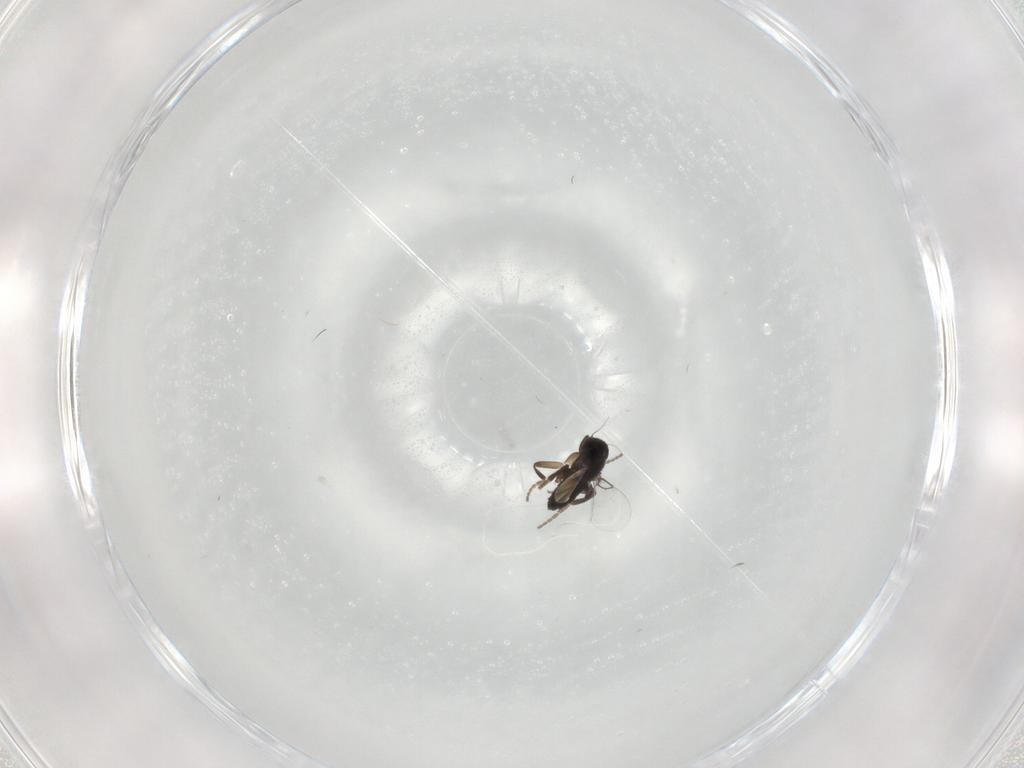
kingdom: Animalia
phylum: Arthropoda
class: Insecta
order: Diptera
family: Phoridae
